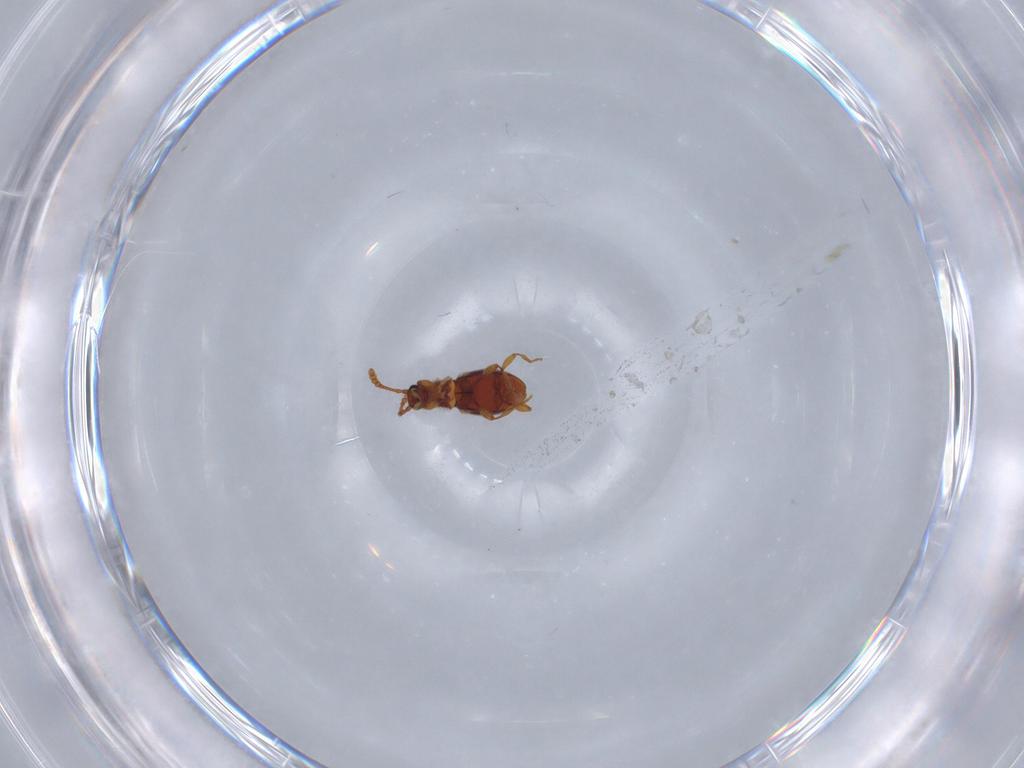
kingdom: Animalia
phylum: Arthropoda
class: Insecta
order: Coleoptera
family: Staphylinidae
